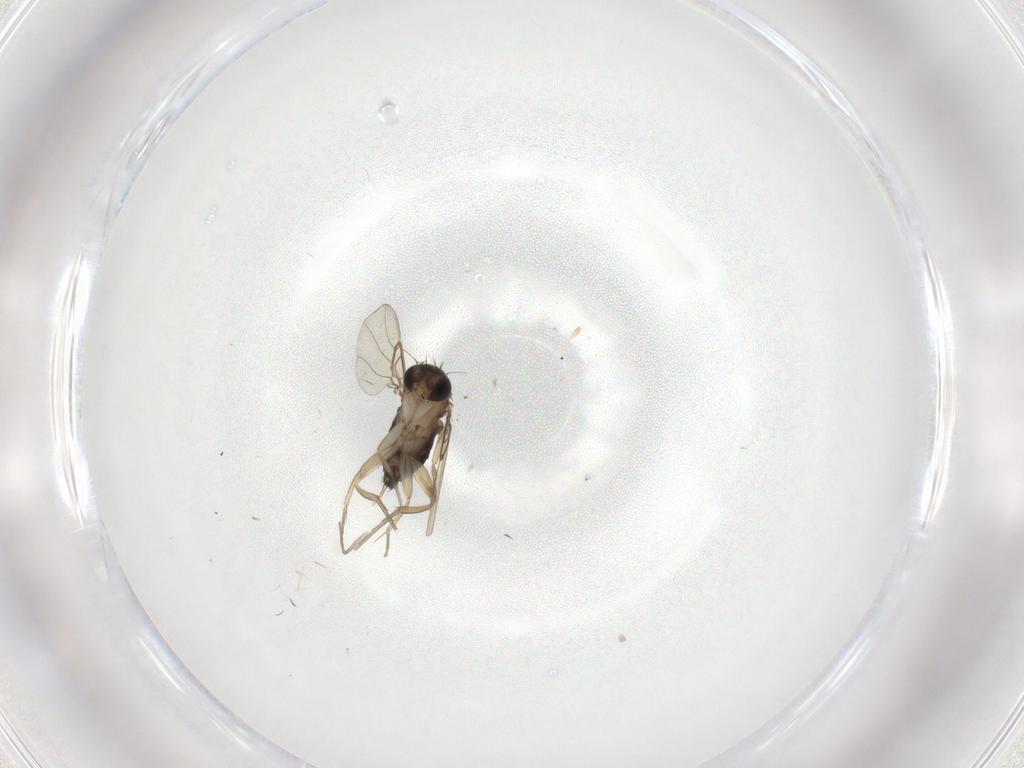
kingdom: Animalia
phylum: Arthropoda
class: Insecta
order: Diptera
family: Phoridae
